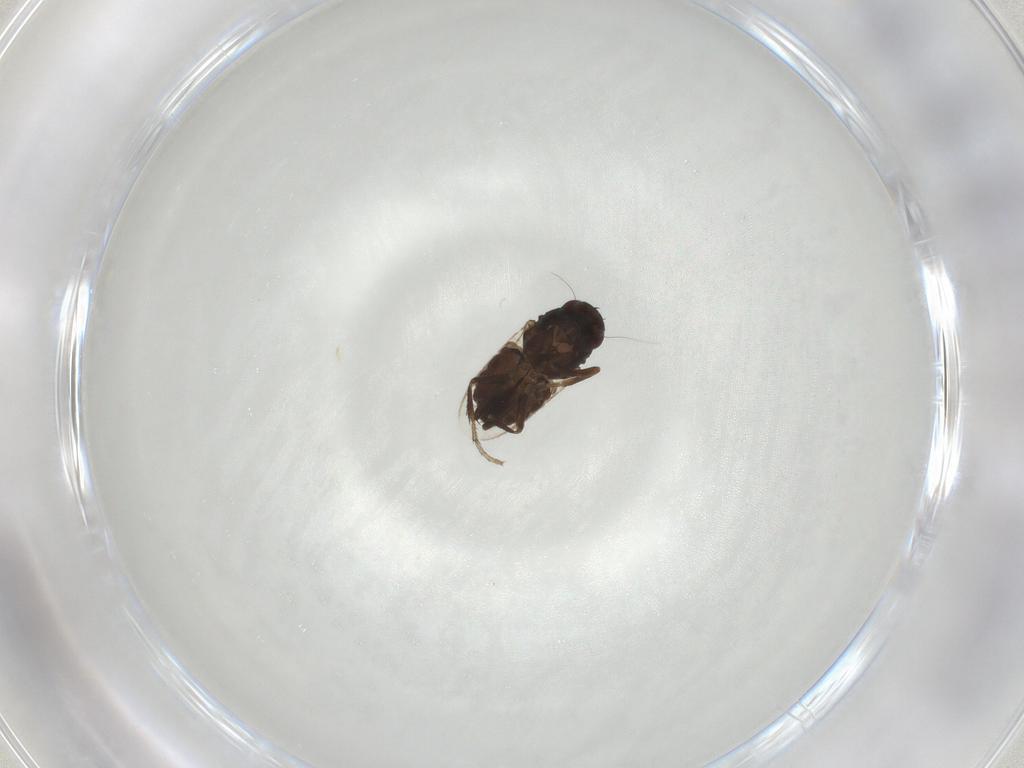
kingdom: Animalia
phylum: Arthropoda
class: Insecta
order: Diptera
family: Sphaeroceridae
